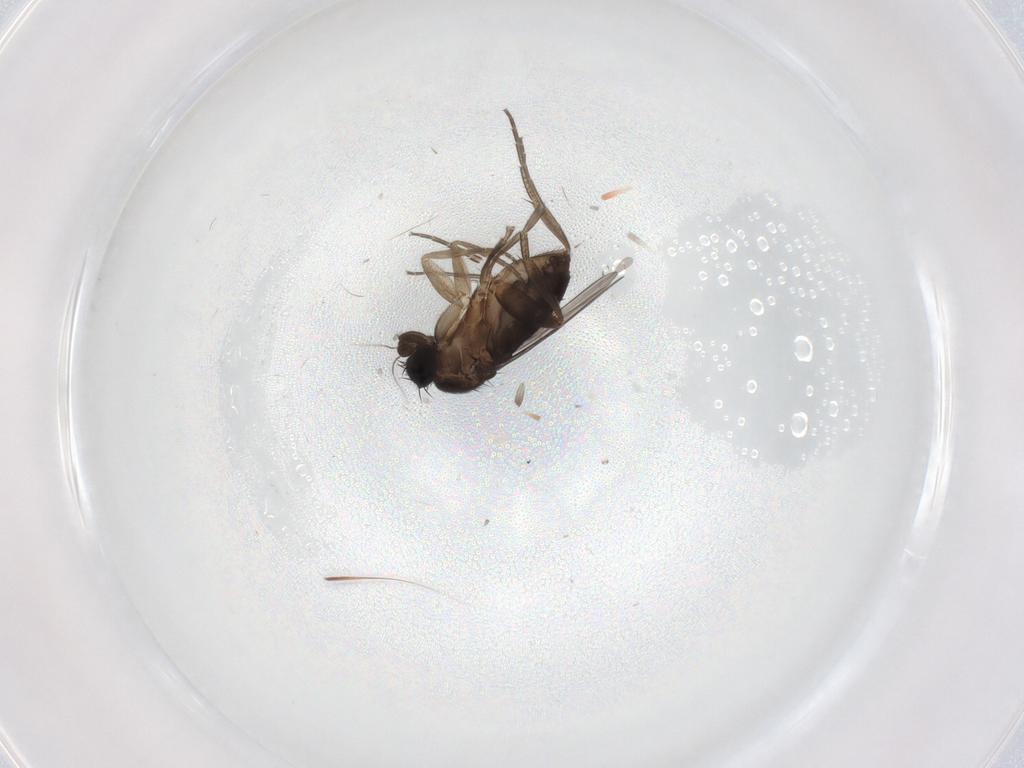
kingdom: Animalia
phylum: Arthropoda
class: Insecta
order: Diptera
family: Phoridae
